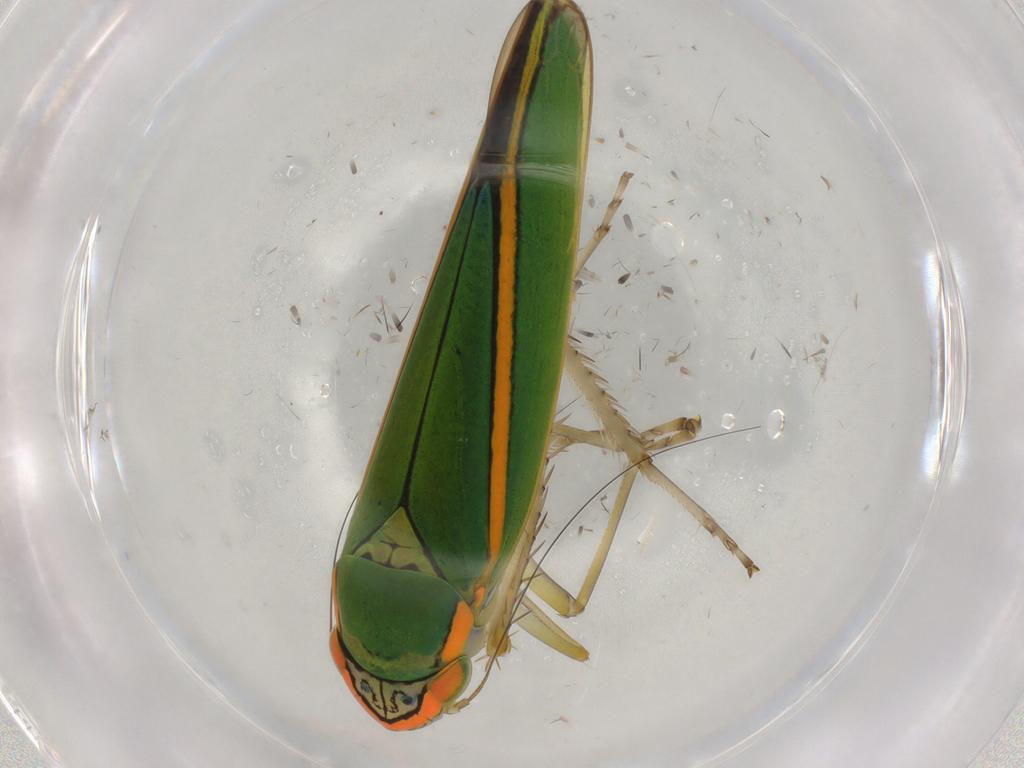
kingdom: Animalia
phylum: Arthropoda
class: Insecta
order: Hemiptera
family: Cicadellidae
